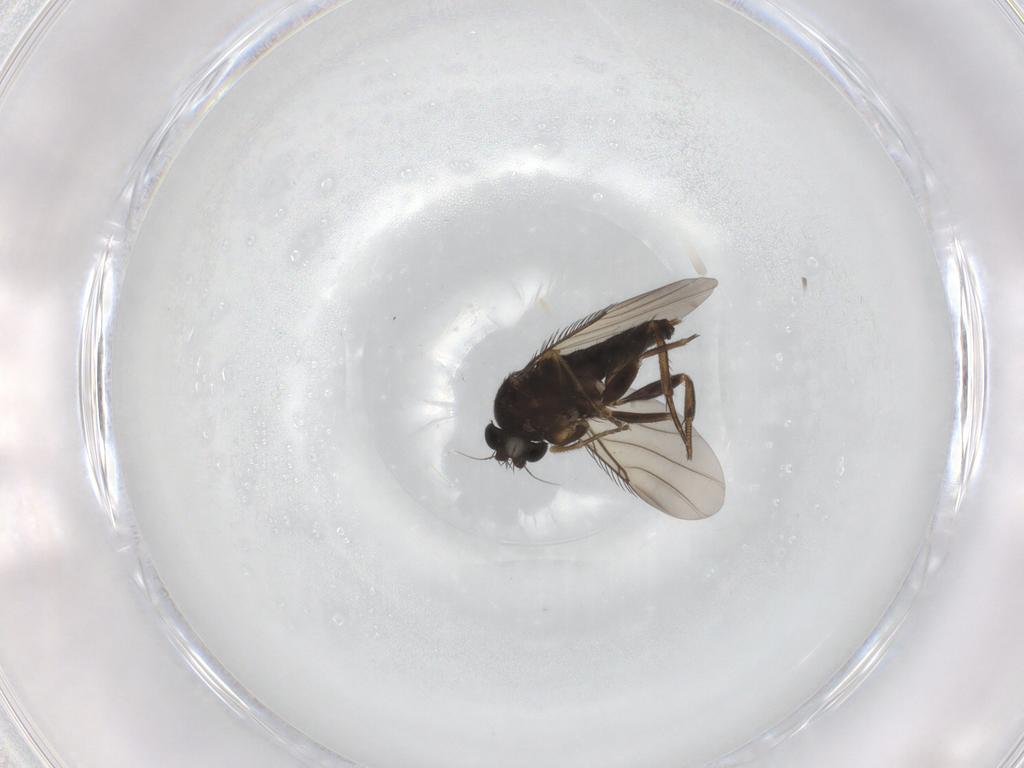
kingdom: Animalia
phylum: Arthropoda
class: Insecta
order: Diptera
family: Phoridae
